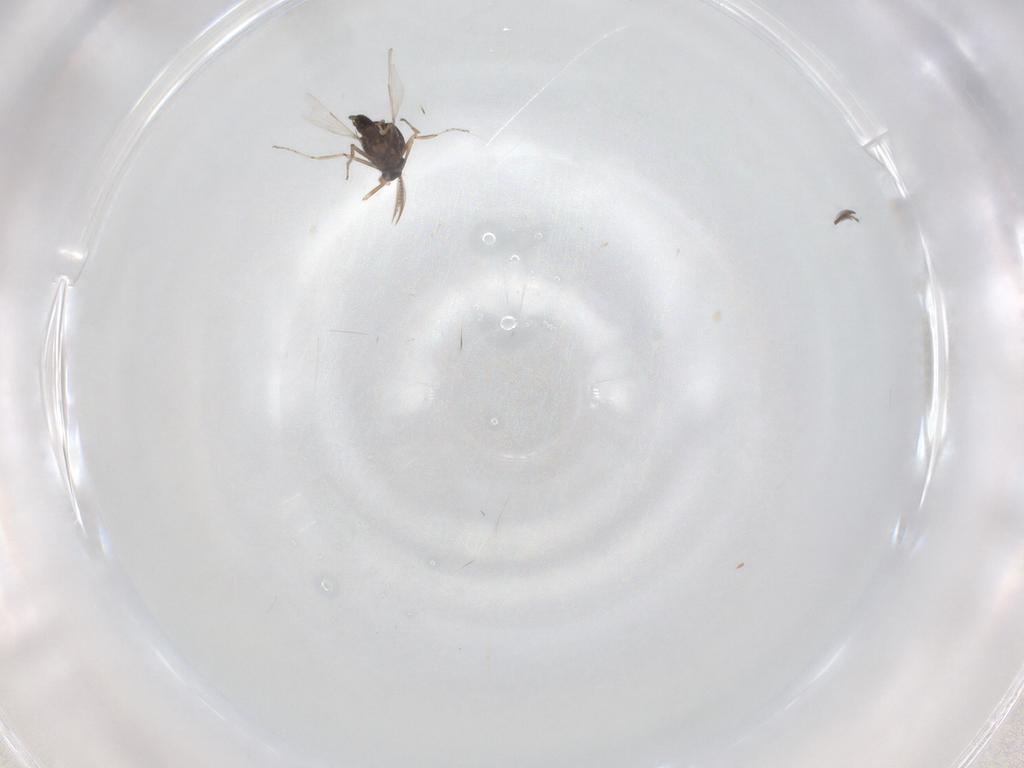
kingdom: Animalia
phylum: Arthropoda
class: Insecta
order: Diptera
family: Ceratopogonidae
